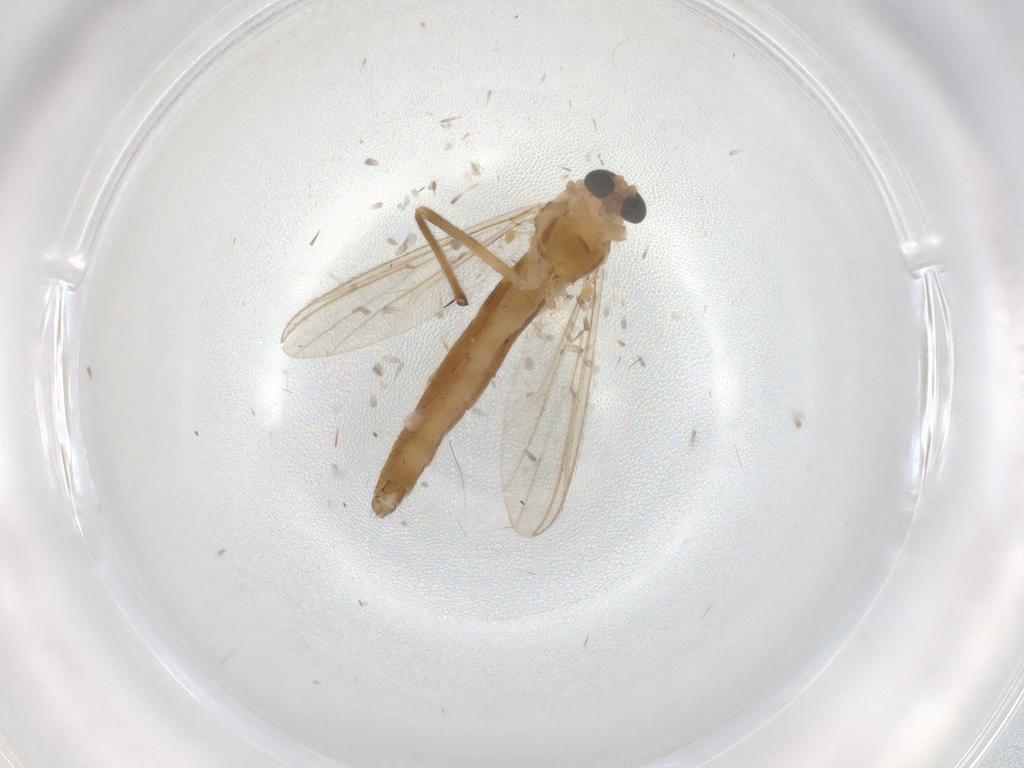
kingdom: Animalia
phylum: Arthropoda
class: Insecta
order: Diptera
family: Chironomidae
